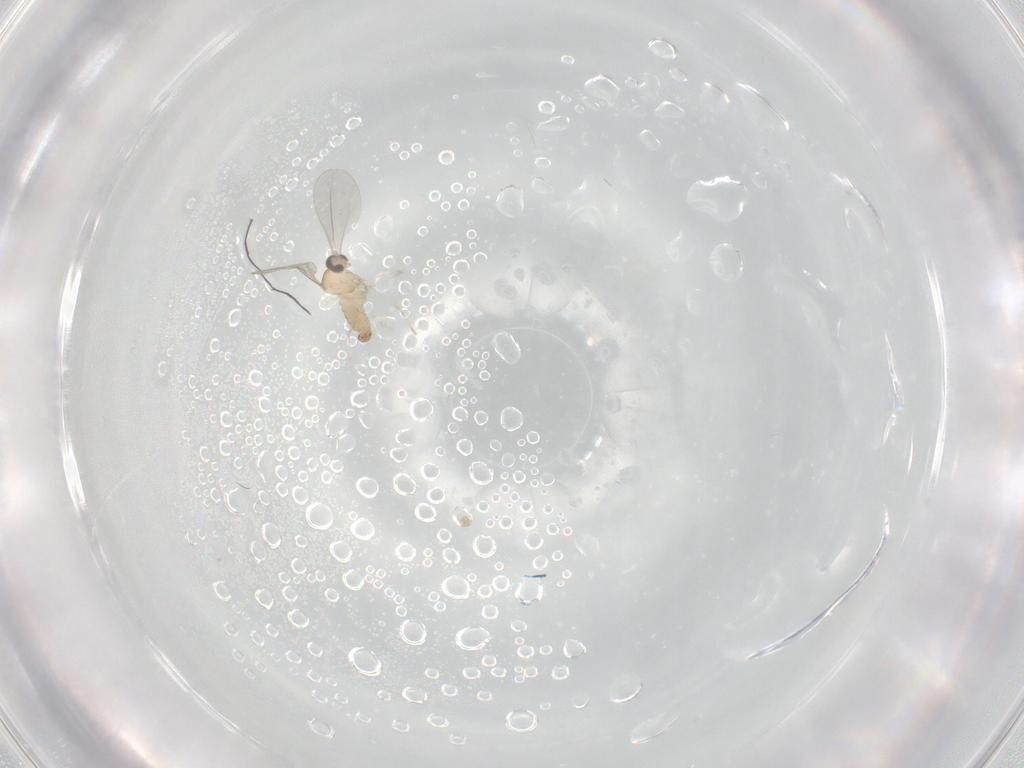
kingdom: Animalia
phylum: Arthropoda
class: Insecta
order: Diptera
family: Cecidomyiidae
